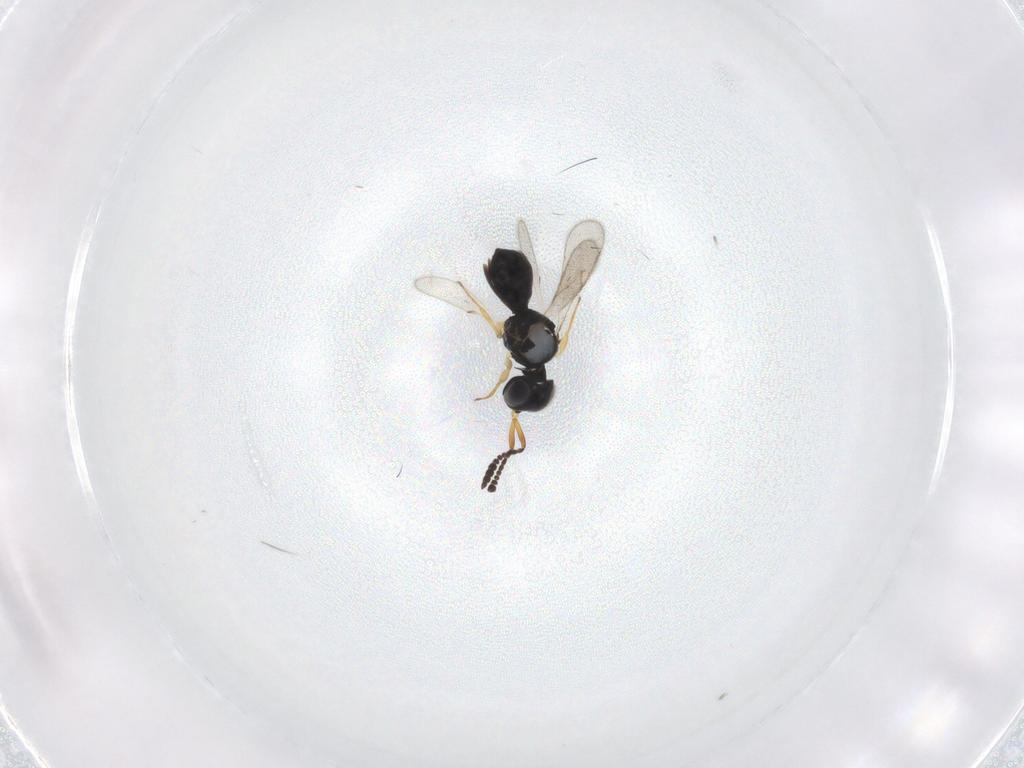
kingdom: Animalia
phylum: Arthropoda
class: Insecta
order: Hymenoptera
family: Scelionidae
